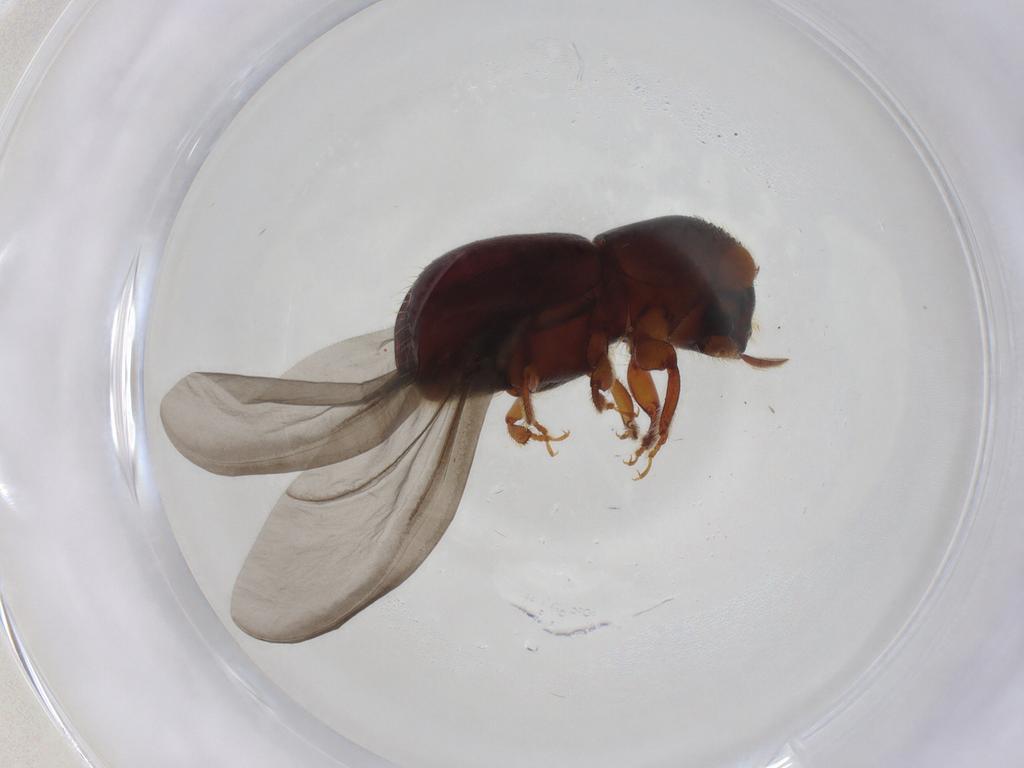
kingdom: Animalia
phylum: Arthropoda
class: Insecta
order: Coleoptera
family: Curculionidae
